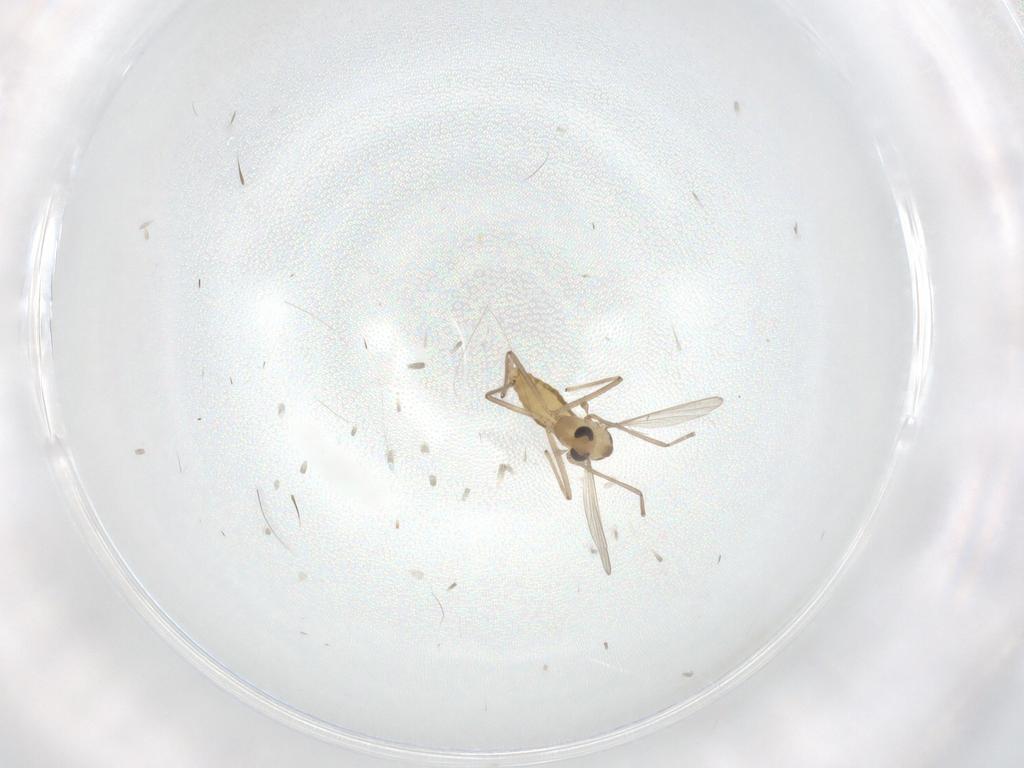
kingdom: Animalia
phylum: Arthropoda
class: Insecta
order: Diptera
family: Chironomidae
